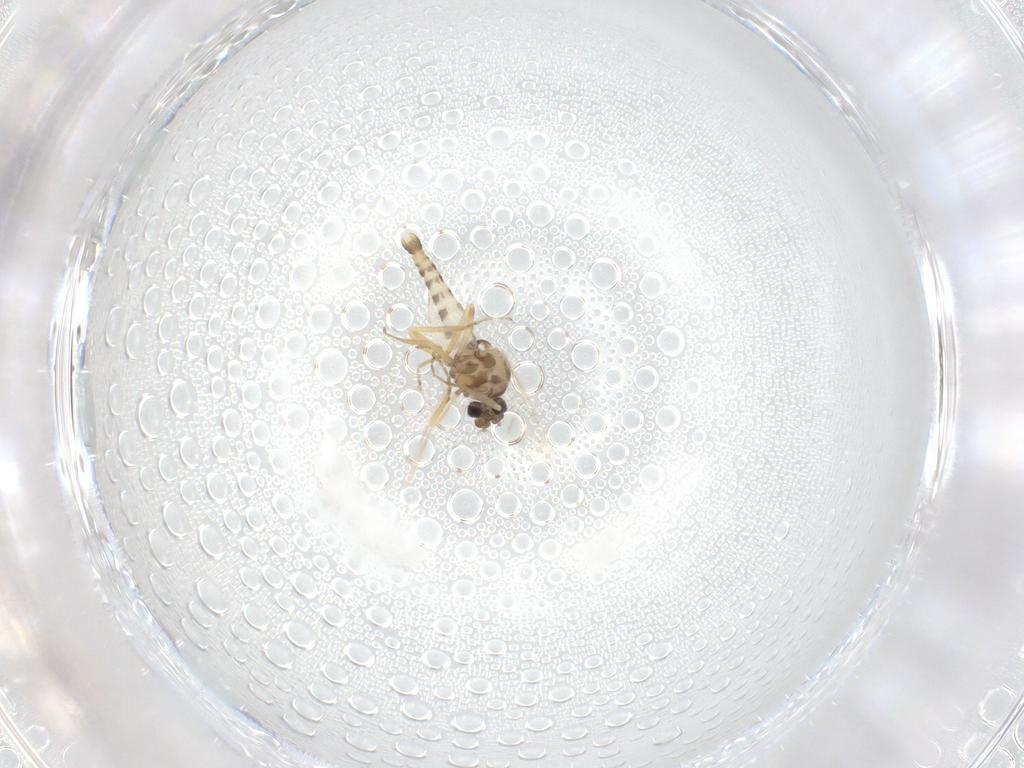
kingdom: Animalia
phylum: Arthropoda
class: Insecta
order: Diptera
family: Ceratopogonidae
